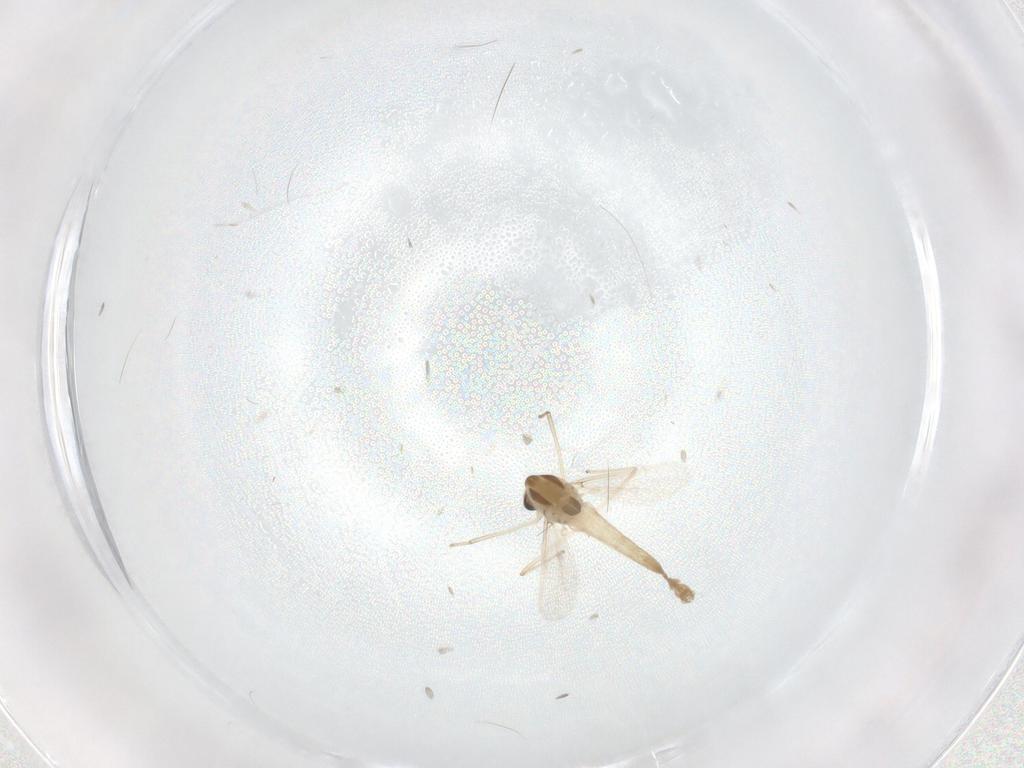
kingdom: Animalia
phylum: Arthropoda
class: Insecta
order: Diptera
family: Chironomidae
